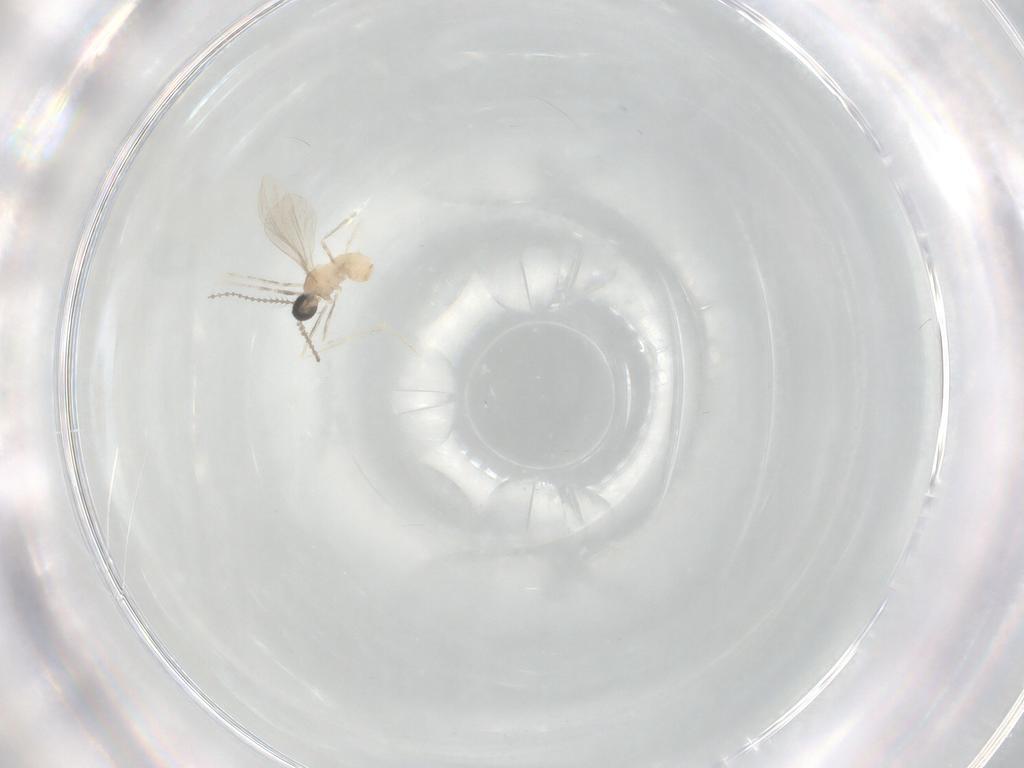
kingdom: Animalia
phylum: Arthropoda
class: Insecta
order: Diptera
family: Cecidomyiidae
